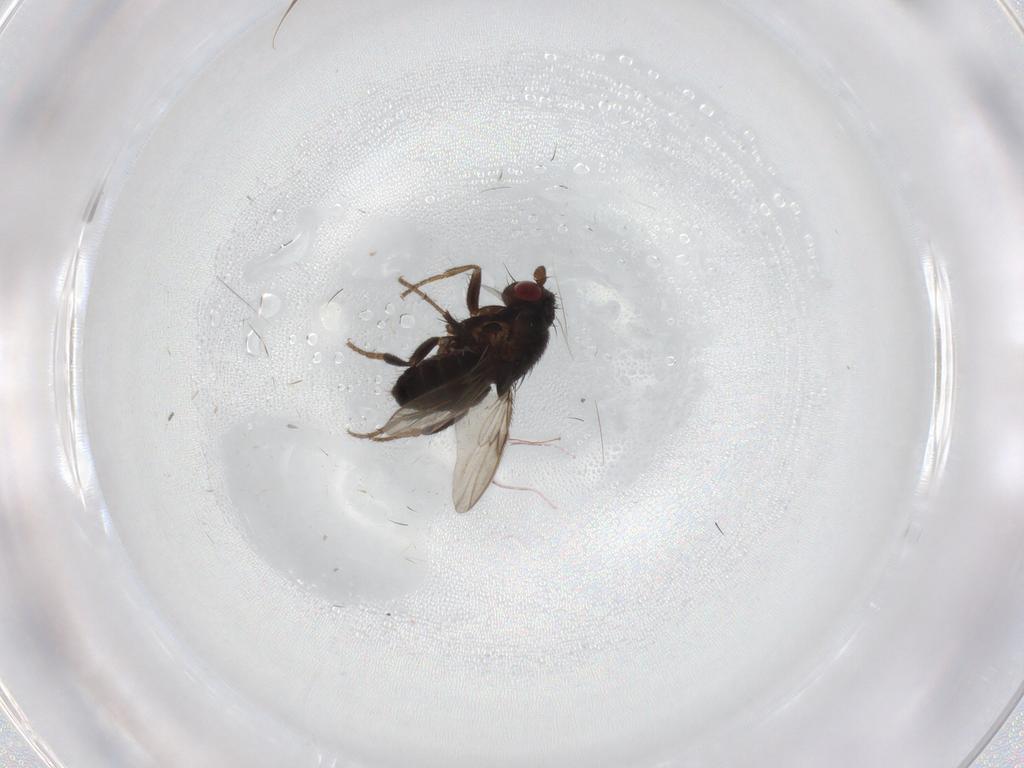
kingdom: Animalia
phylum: Arthropoda
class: Insecta
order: Diptera
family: Sphaeroceridae
